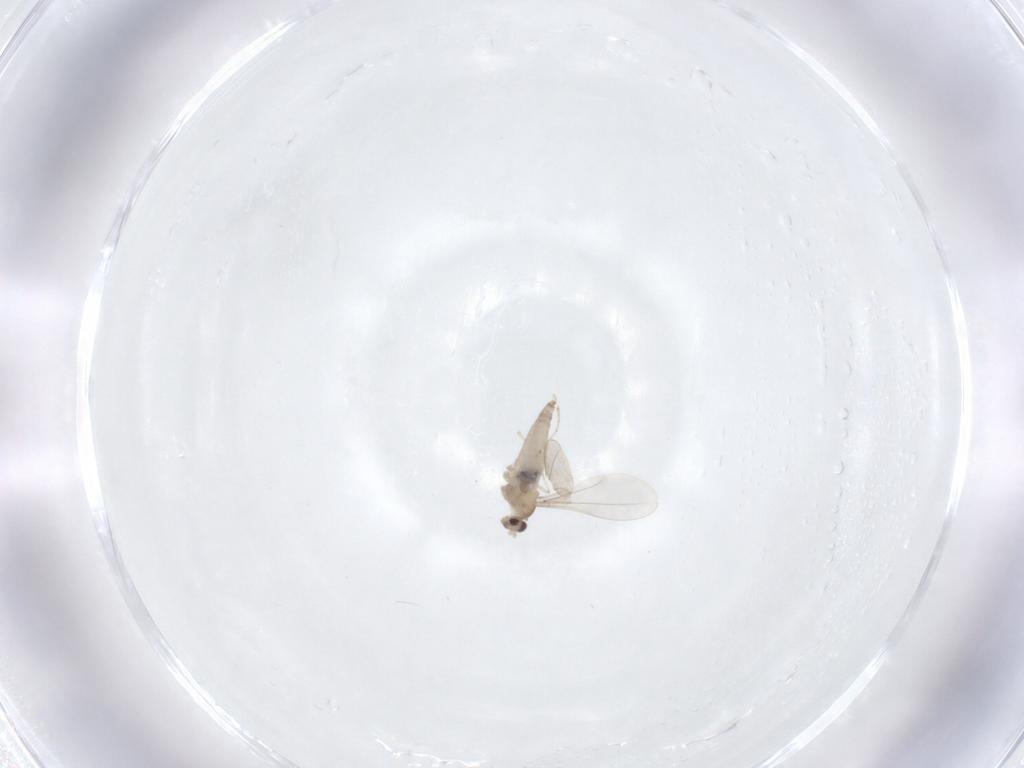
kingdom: Animalia
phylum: Arthropoda
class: Insecta
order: Diptera
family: Cecidomyiidae
